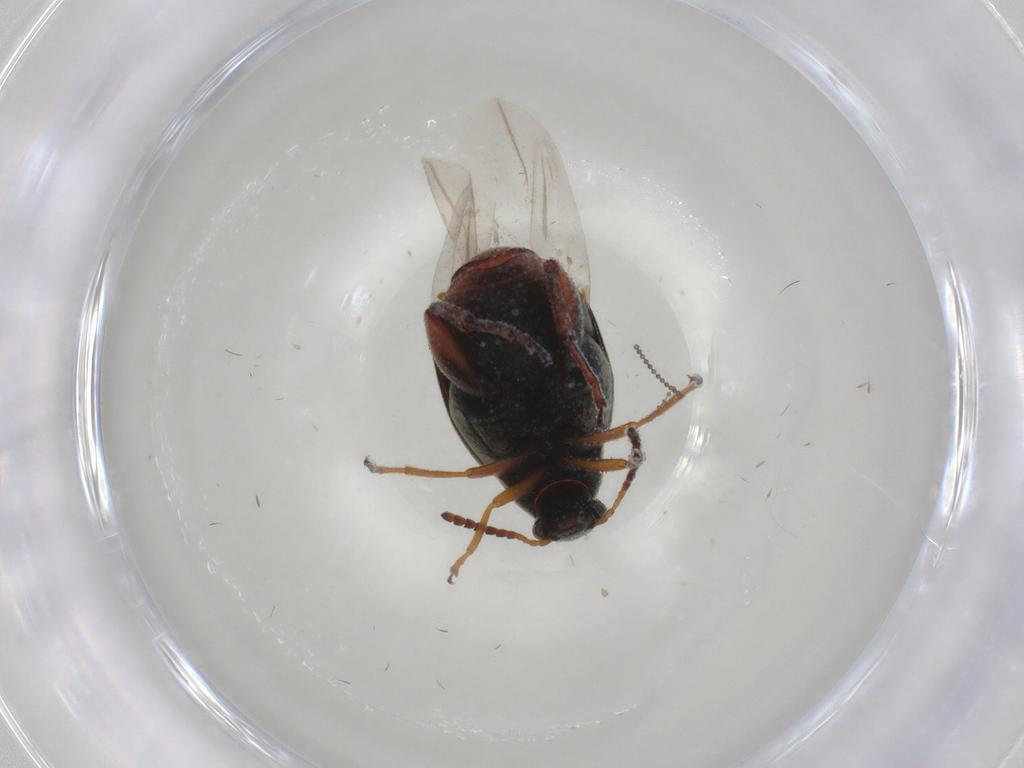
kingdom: Animalia
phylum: Arthropoda
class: Insecta
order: Coleoptera
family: Chrysomelidae
